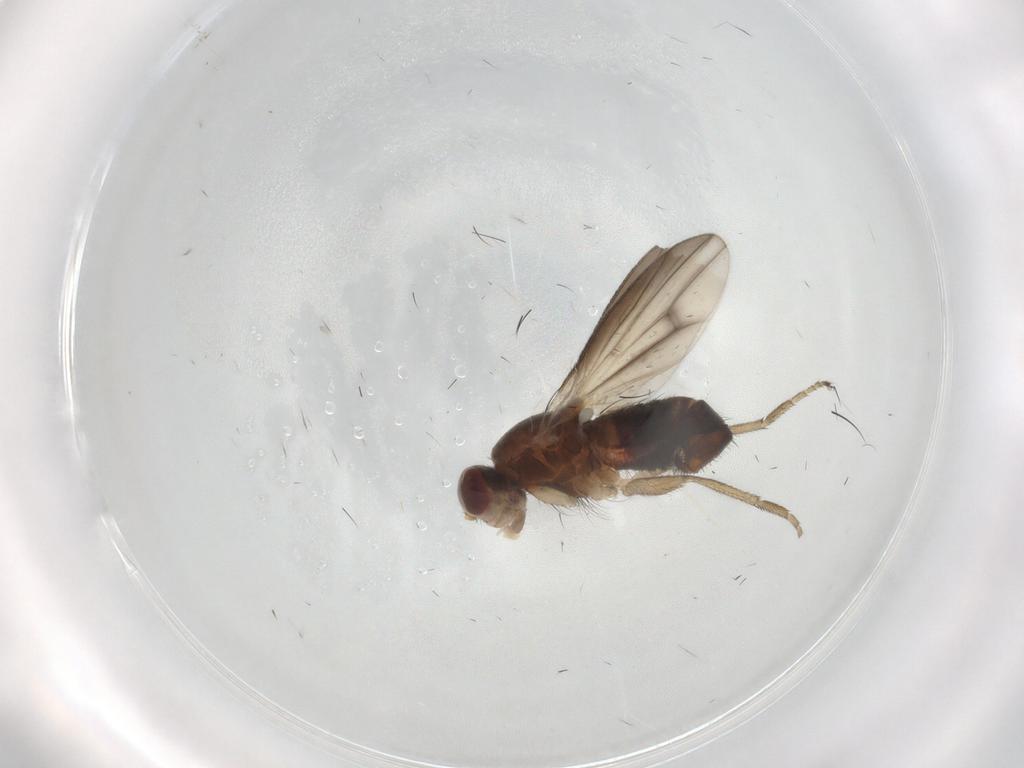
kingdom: Animalia
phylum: Arthropoda
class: Insecta
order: Diptera
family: Heleomyzidae
